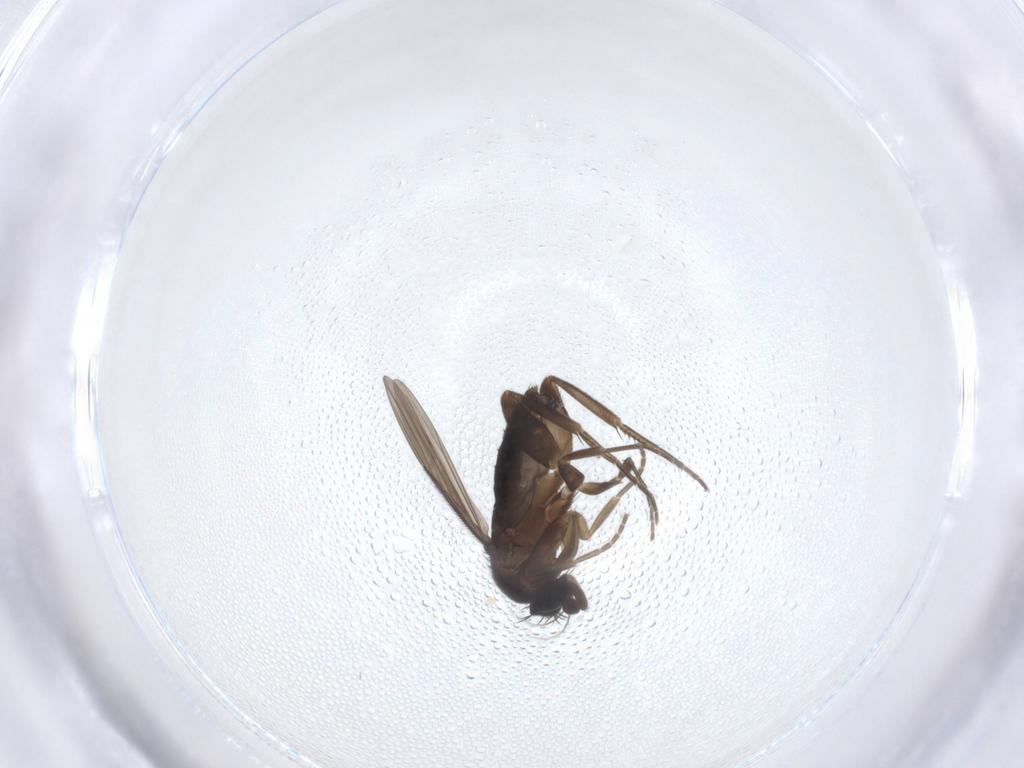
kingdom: Animalia
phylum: Arthropoda
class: Insecta
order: Diptera
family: Phoridae
